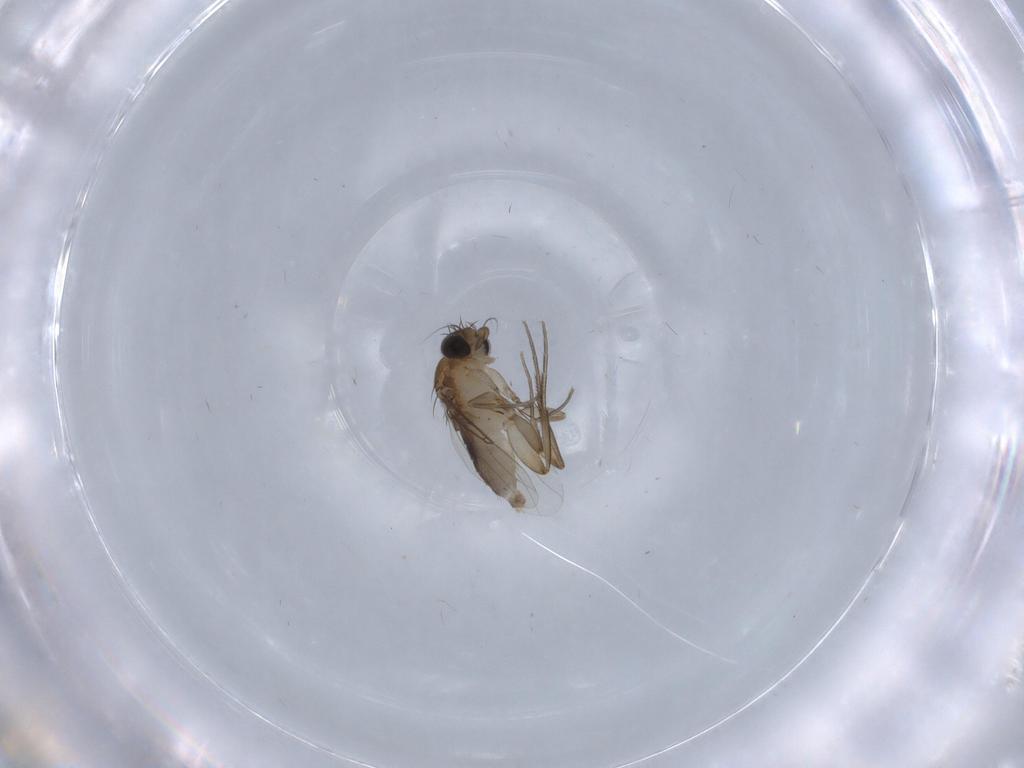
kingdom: Animalia
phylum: Arthropoda
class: Insecta
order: Diptera
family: Phoridae
